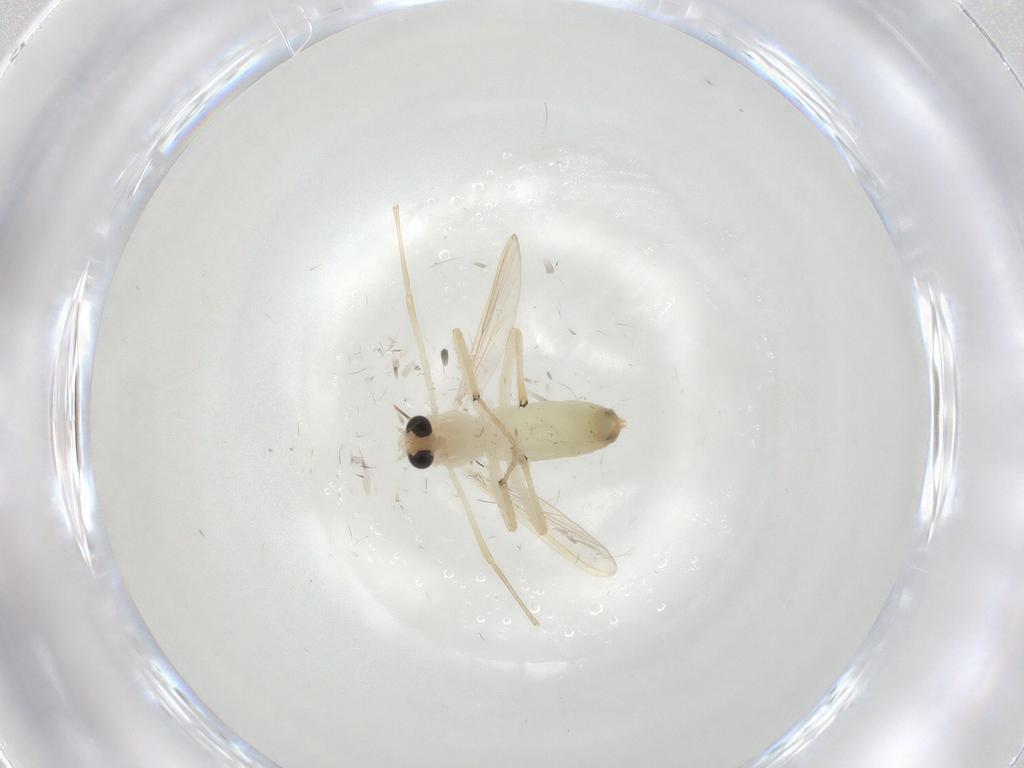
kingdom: Animalia
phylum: Arthropoda
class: Insecta
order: Diptera
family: Chironomidae
